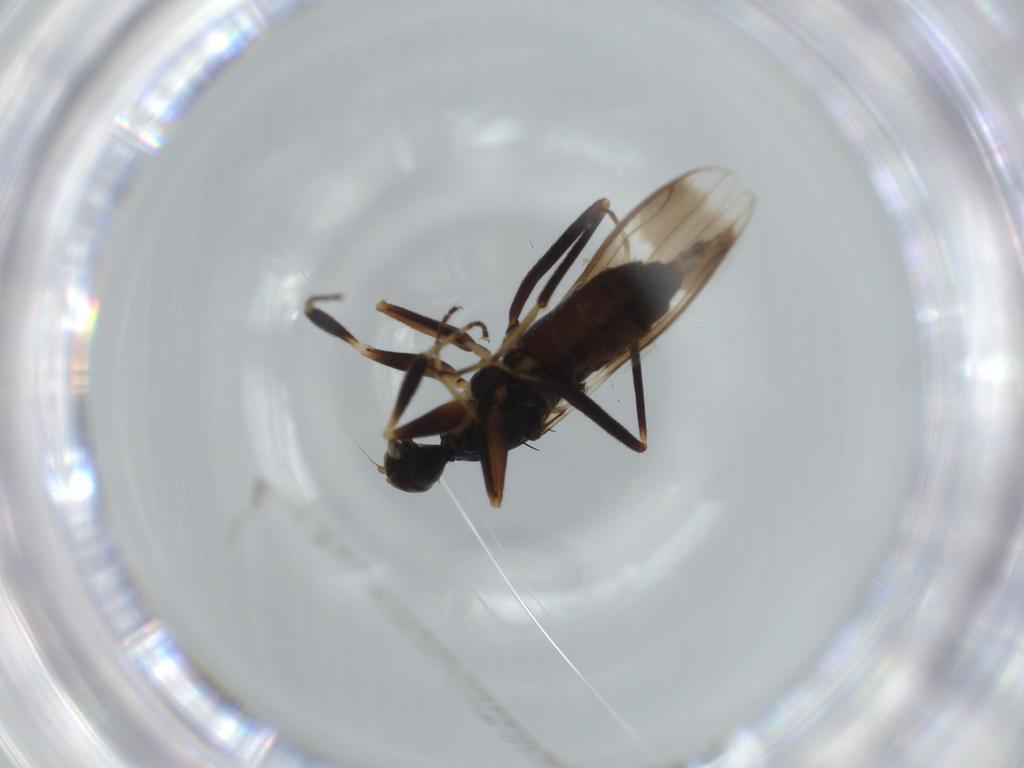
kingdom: Animalia
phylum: Arthropoda
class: Insecta
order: Diptera
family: Hybotidae
